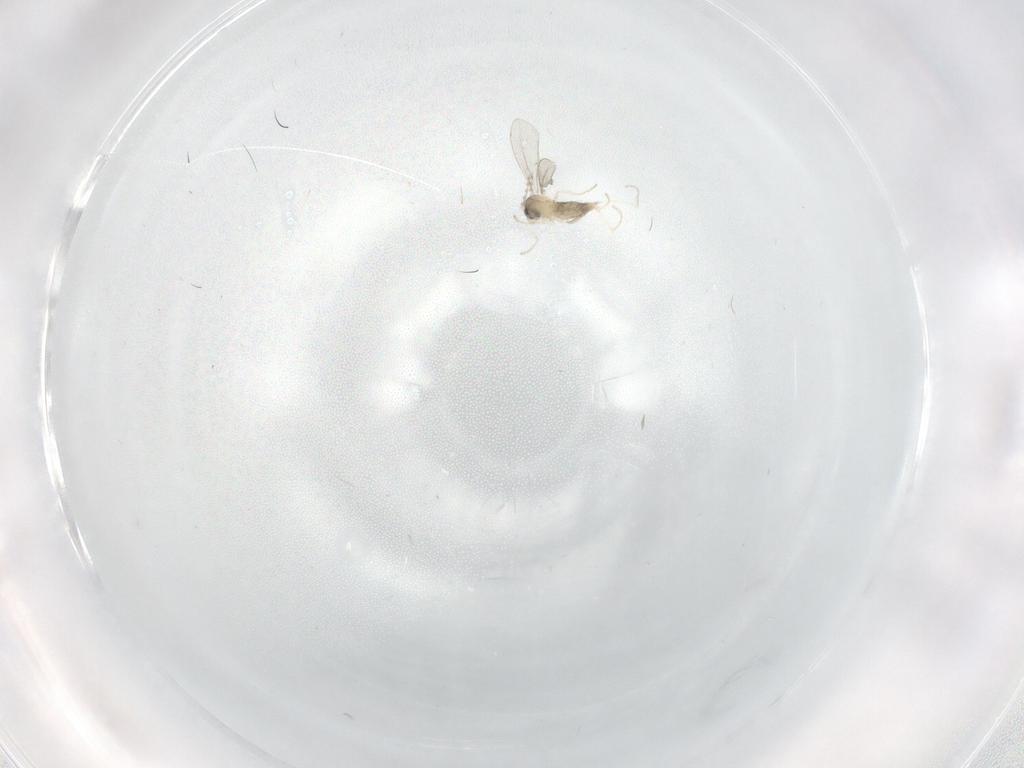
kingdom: Animalia
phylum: Arthropoda
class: Insecta
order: Diptera
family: Cecidomyiidae
